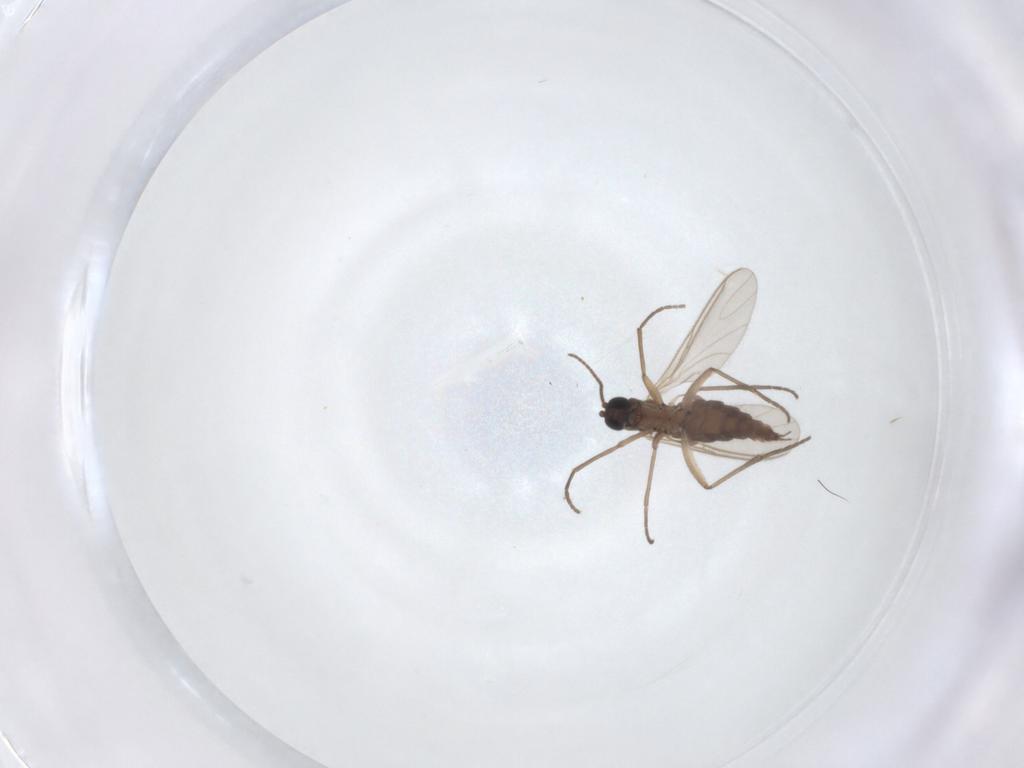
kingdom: Animalia
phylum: Arthropoda
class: Insecta
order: Diptera
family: Sciaridae
